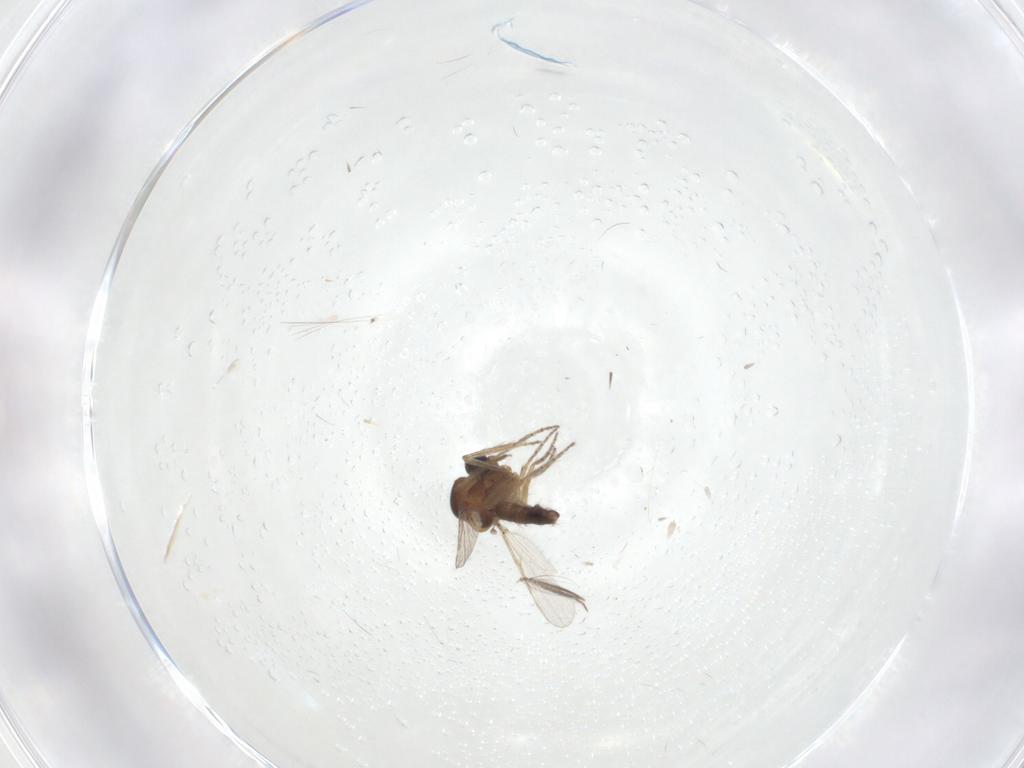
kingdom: Animalia
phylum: Arthropoda
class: Insecta
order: Diptera
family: Cecidomyiidae
